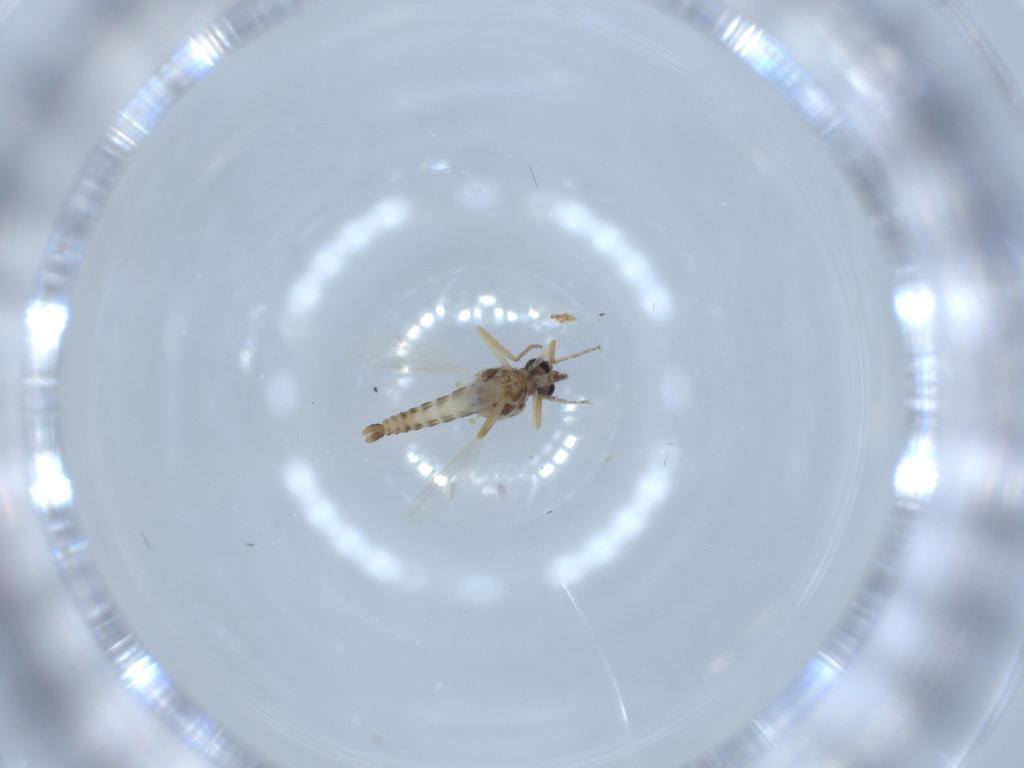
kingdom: Animalia
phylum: Arthropoda
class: Insecta
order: Diptera
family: Ceratopogonidae
